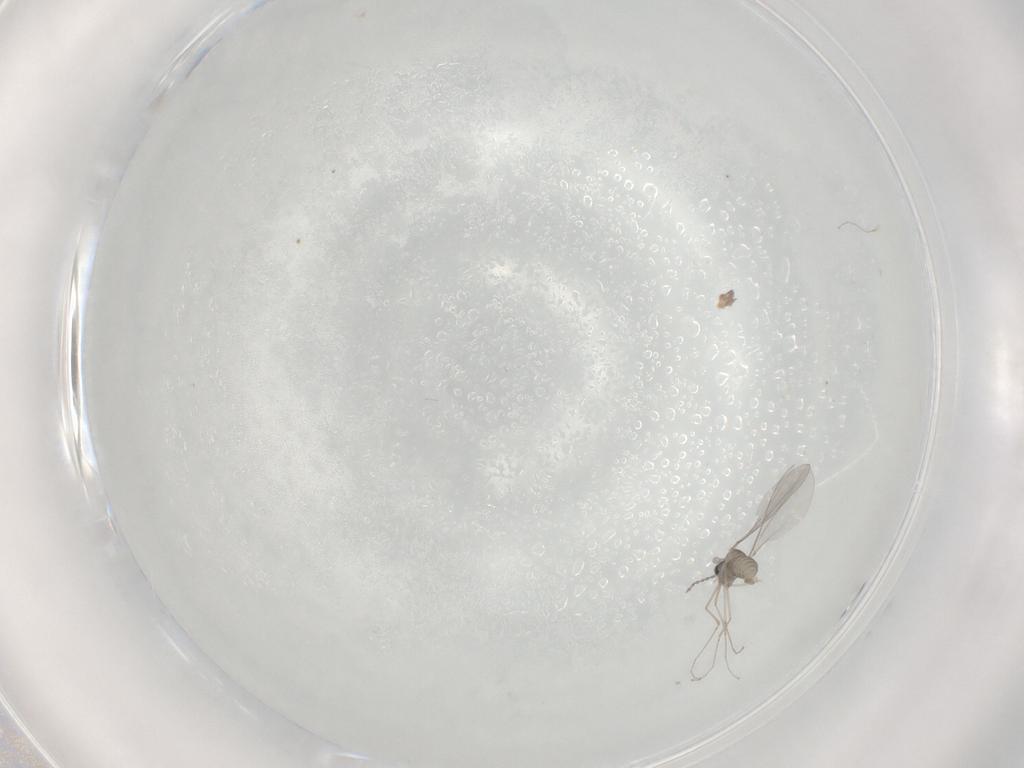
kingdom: Animalia
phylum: Arthropoda
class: Insecta
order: Diptera
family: Cecidomyiidae
